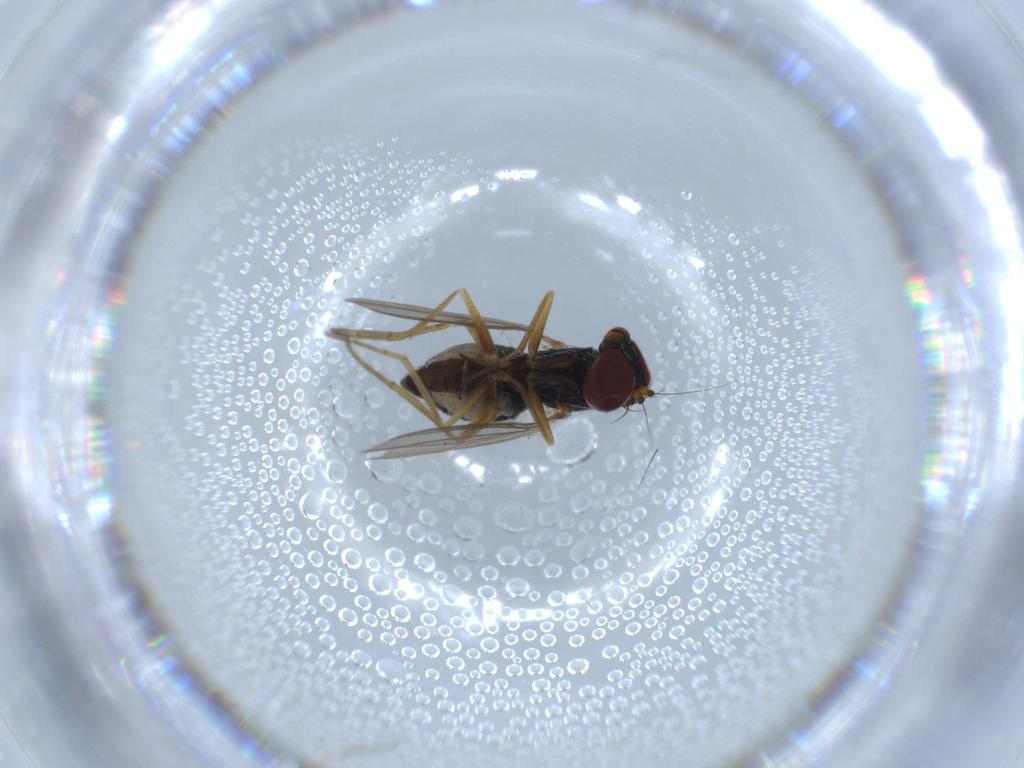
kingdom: Animalia
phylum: Arthropoda
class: Insecta
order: Diptera
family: Dolichopodidae
